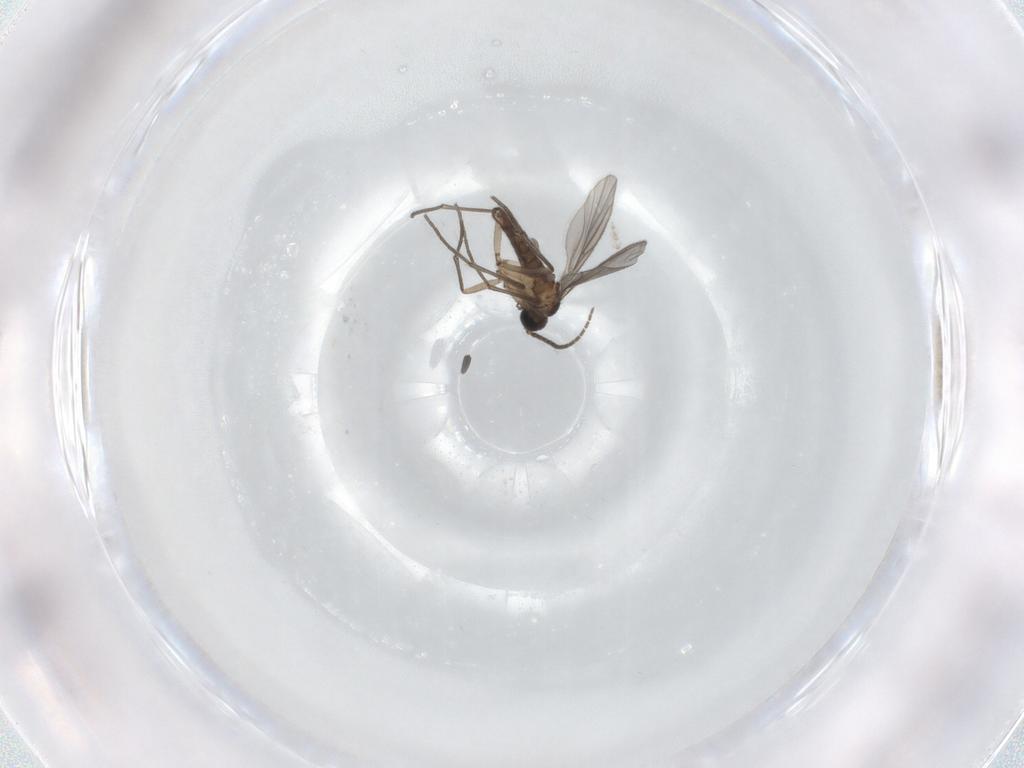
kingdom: Animalia
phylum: Arthropoda
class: Insecta
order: Diptera
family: Sciaridae
